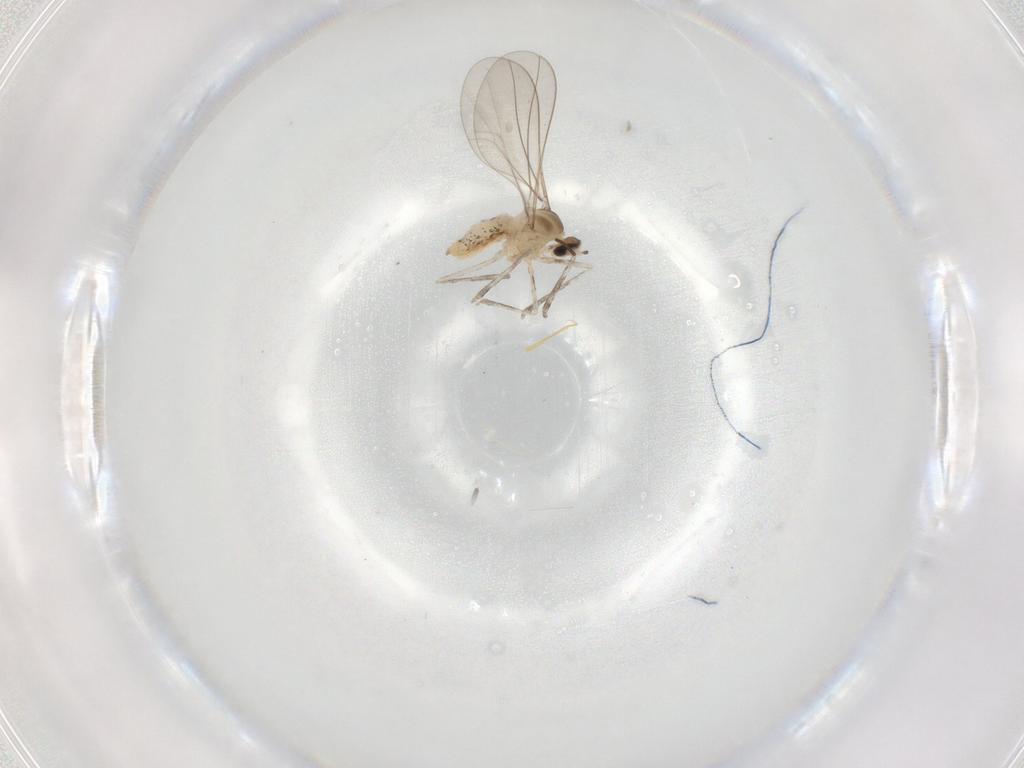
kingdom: Animalia
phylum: Arthropoda
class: Insecta
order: Diptera
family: Cecidomyiidae
